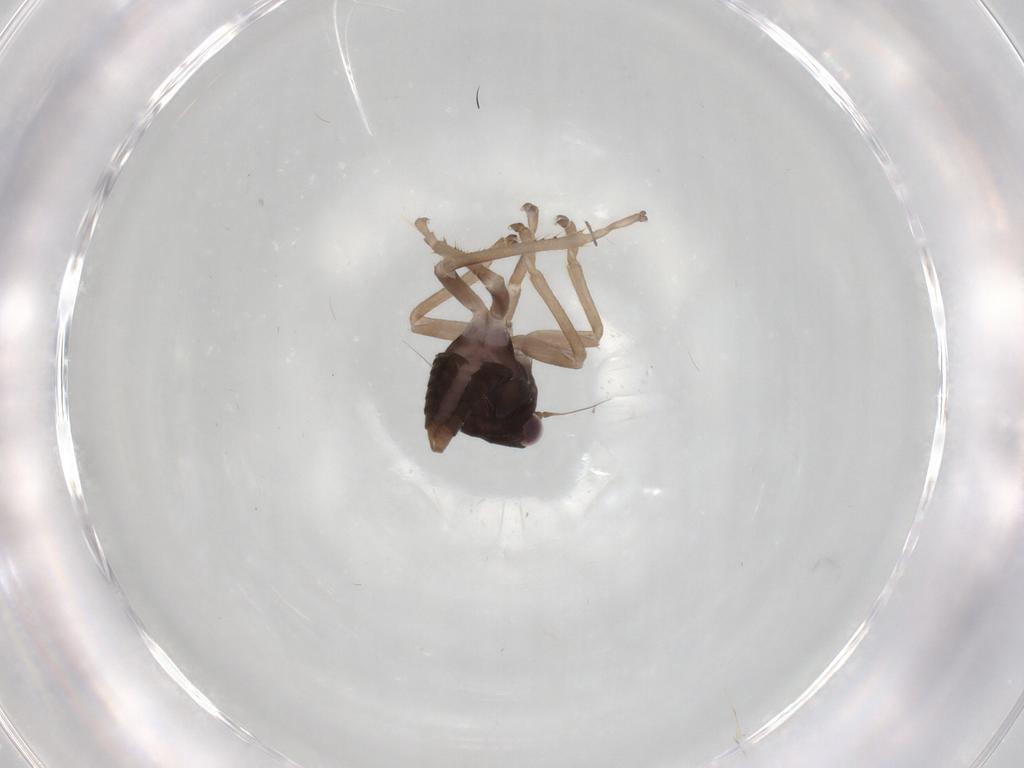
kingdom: Animalia
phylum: Arthropoda
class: Insecta
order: Hemiptera
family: Cicadellidae
